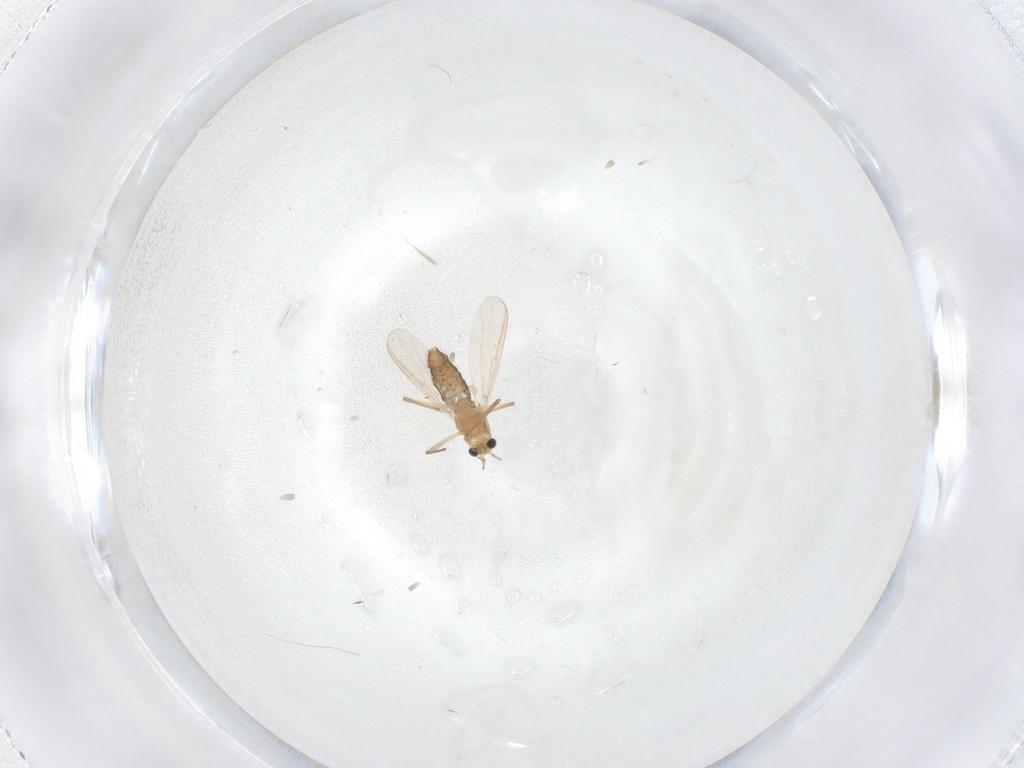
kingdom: Animalia
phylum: Arthropoda
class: Insecta
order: Diptera
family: Chironomidae
